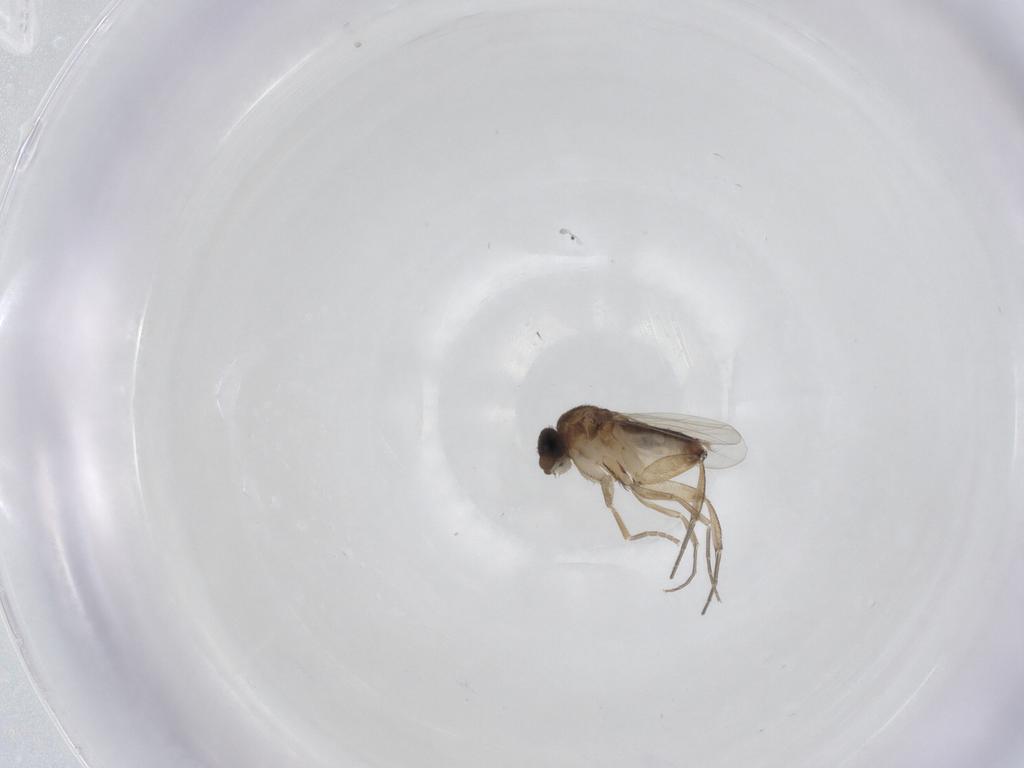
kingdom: Animalia
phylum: Arthropoda
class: Insecta
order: Diptera
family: Phoridae
